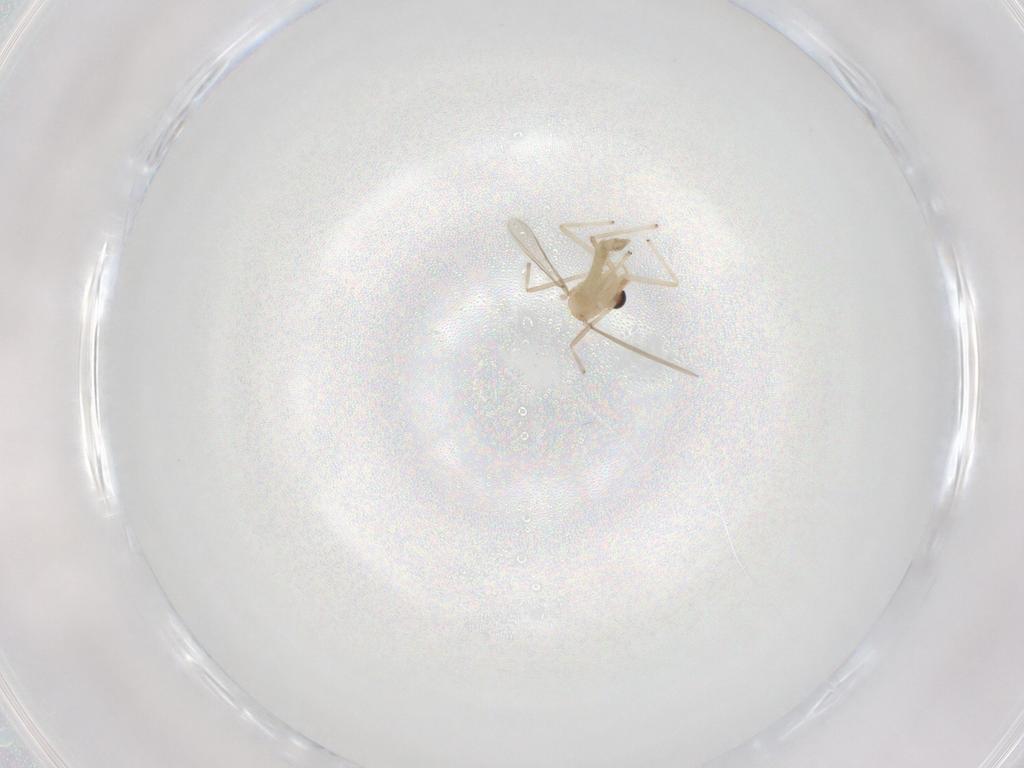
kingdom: Animalia
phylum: Arthropoda
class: Insecta
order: Diptera
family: Chironomidae
